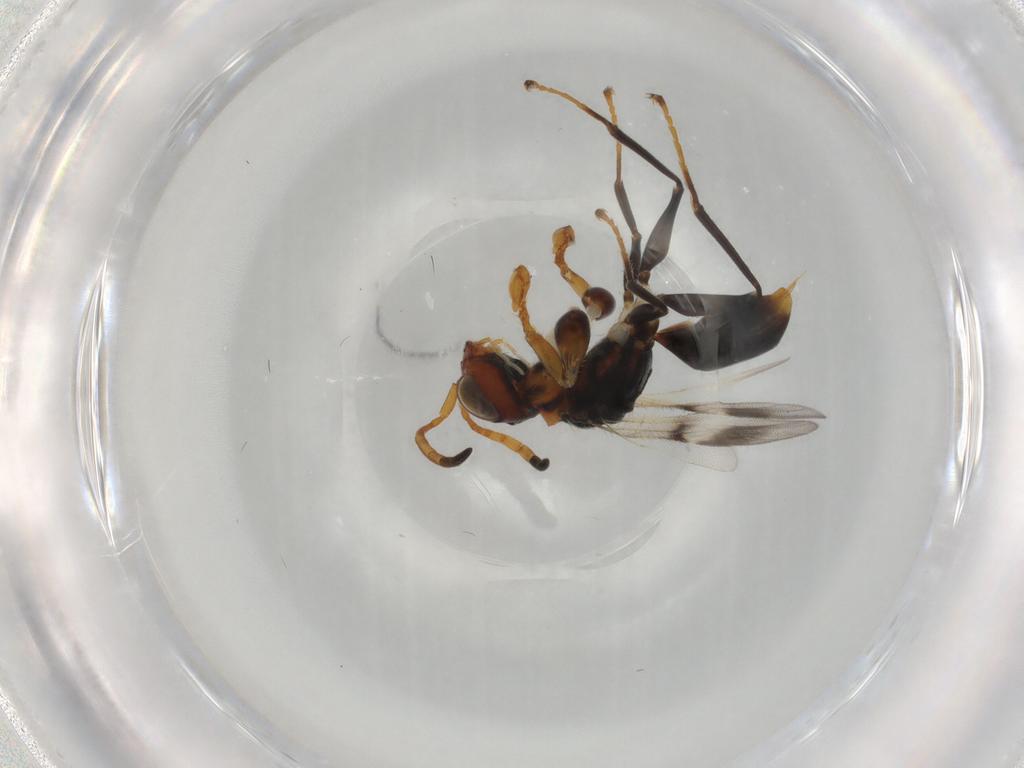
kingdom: Animalia
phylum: Arthropoda
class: Insecta
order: Hymenoptera
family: Dryinidae
